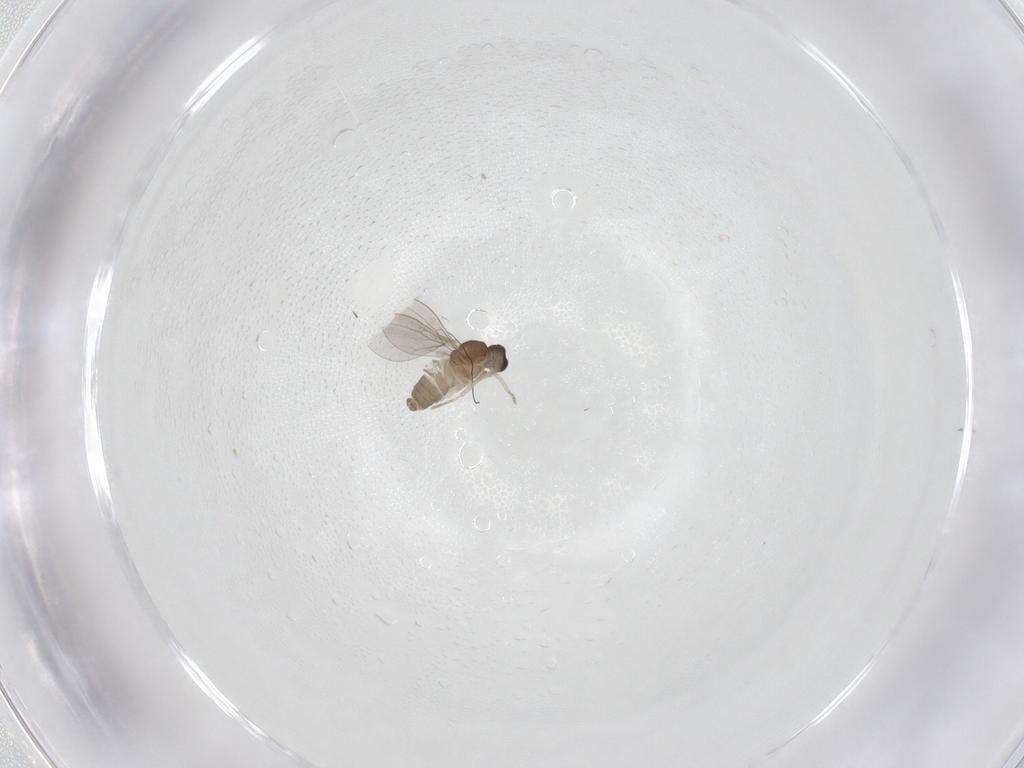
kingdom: Animalia
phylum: Arthropoda
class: Insecta
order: Diptera
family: Cecidomyiidae
